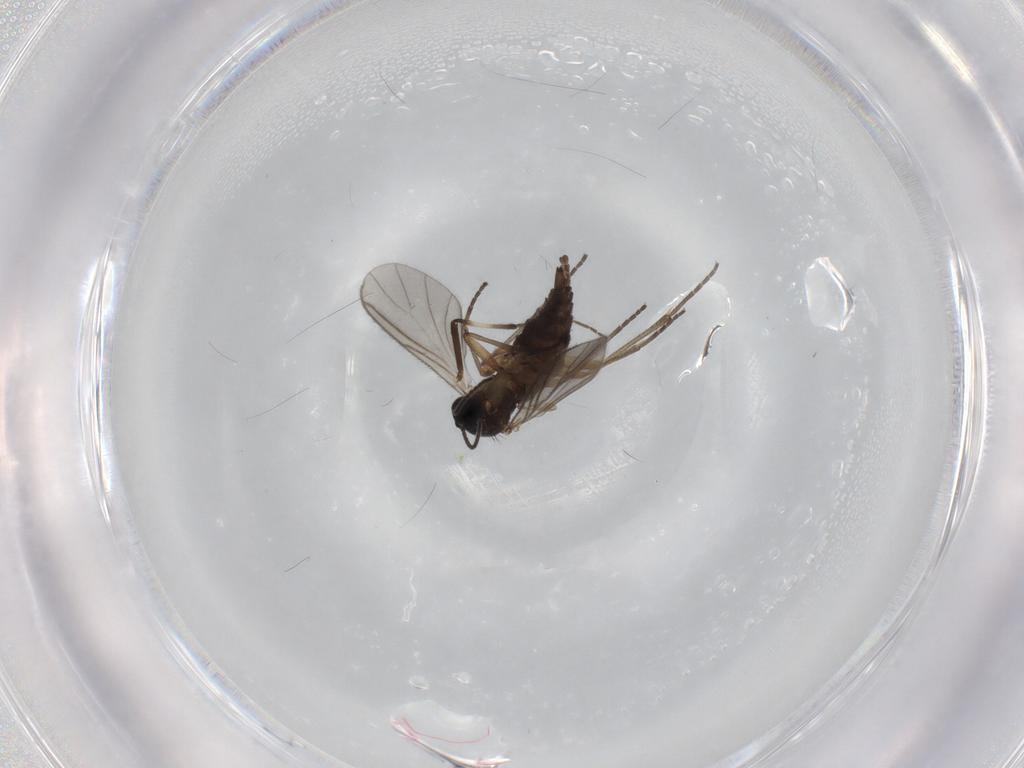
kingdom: Animalia
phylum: Arthropoda
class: Insecta
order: Diptera
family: Sciaridae
